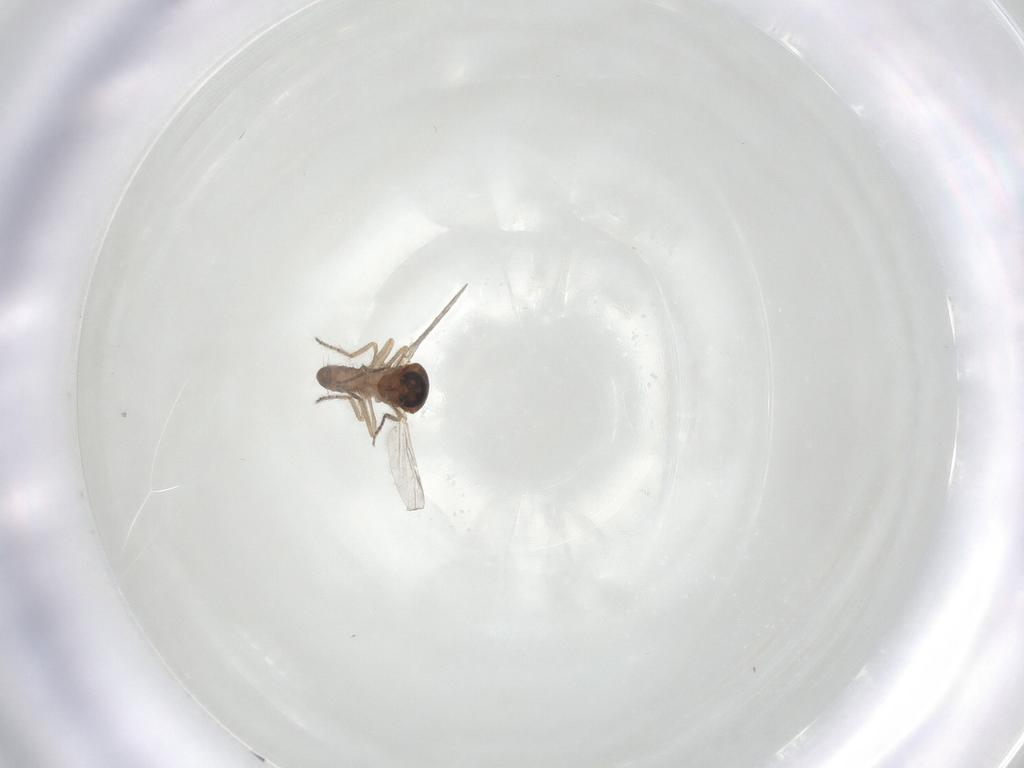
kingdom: Animalia
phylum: Arthropoda
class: Insecta
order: Diptera
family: Ceratopogonidae
